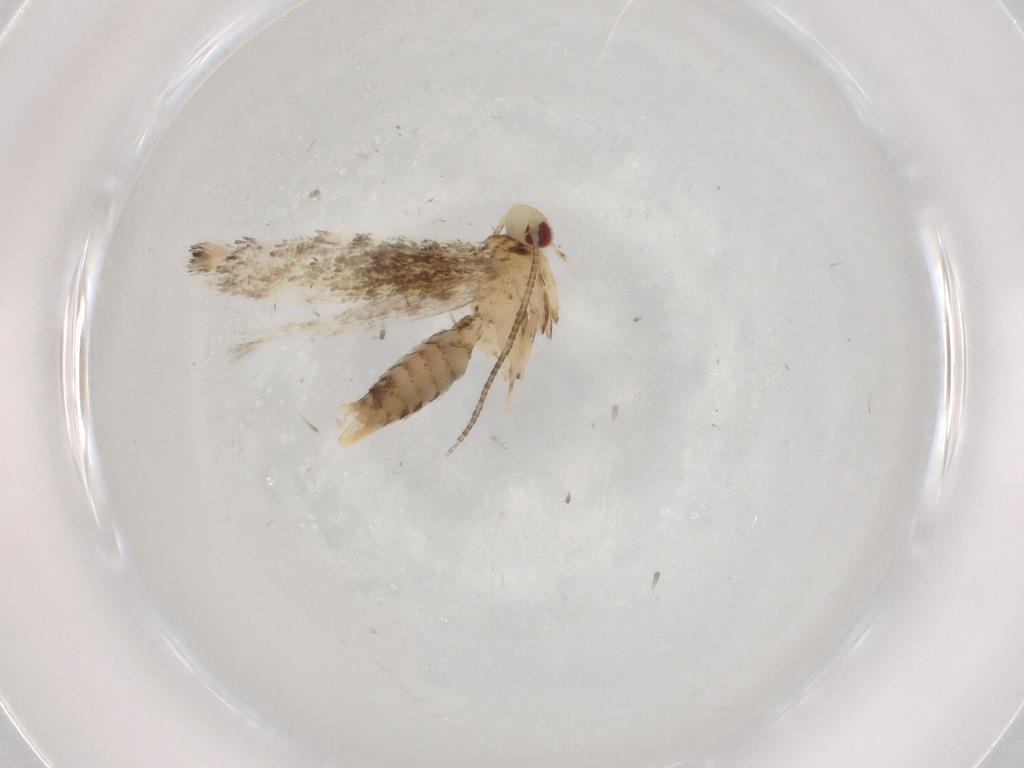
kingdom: Animalia
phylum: Arthropoda
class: Insecta
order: Lepidoptera
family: Gracillariidae
